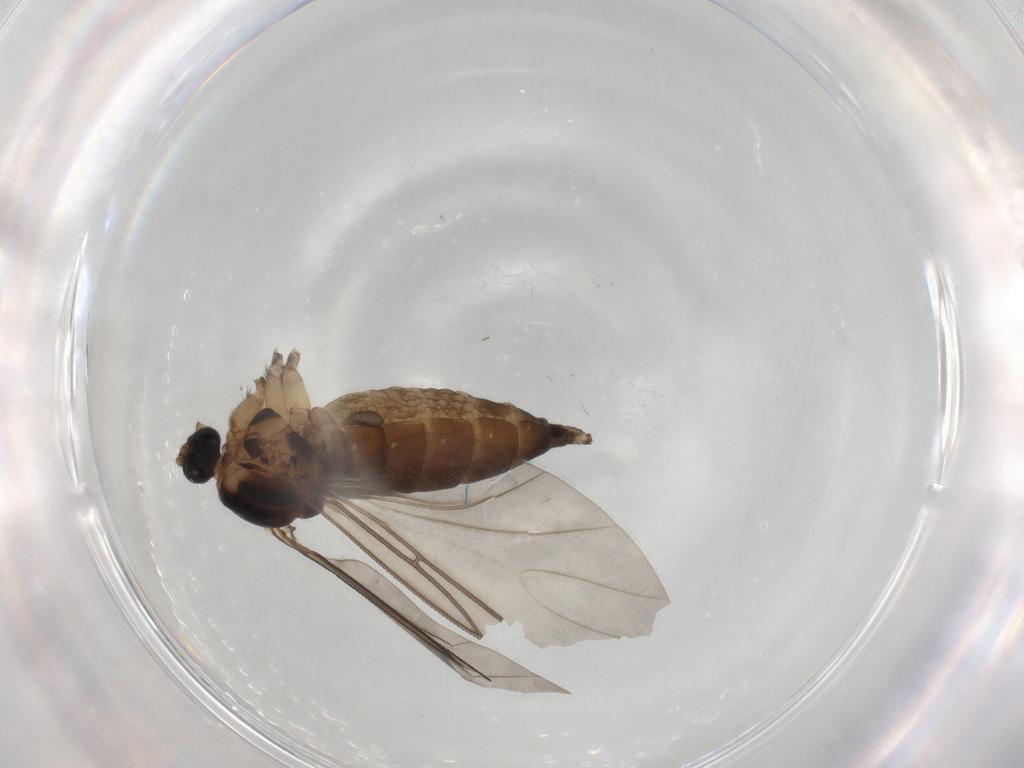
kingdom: Animalia
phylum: Arthropoda
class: Insecta
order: Diptera
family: Sciaridae
